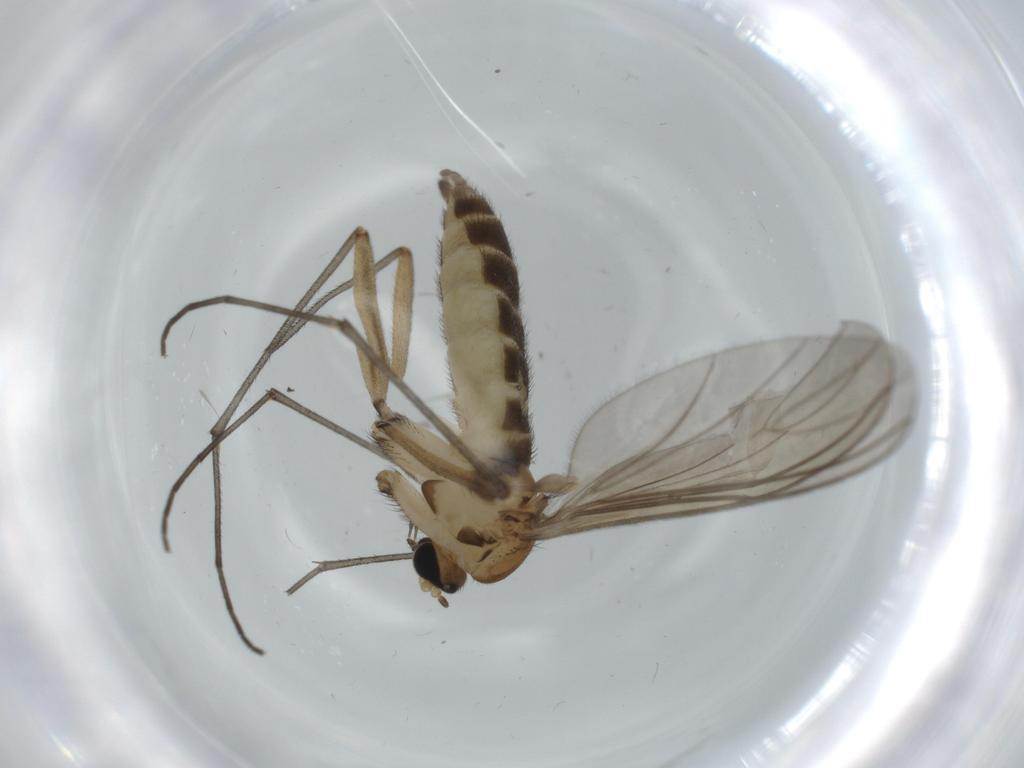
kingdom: Animalia
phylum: Arthropoda
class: Insecta
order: Diptera
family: Sciaridae
